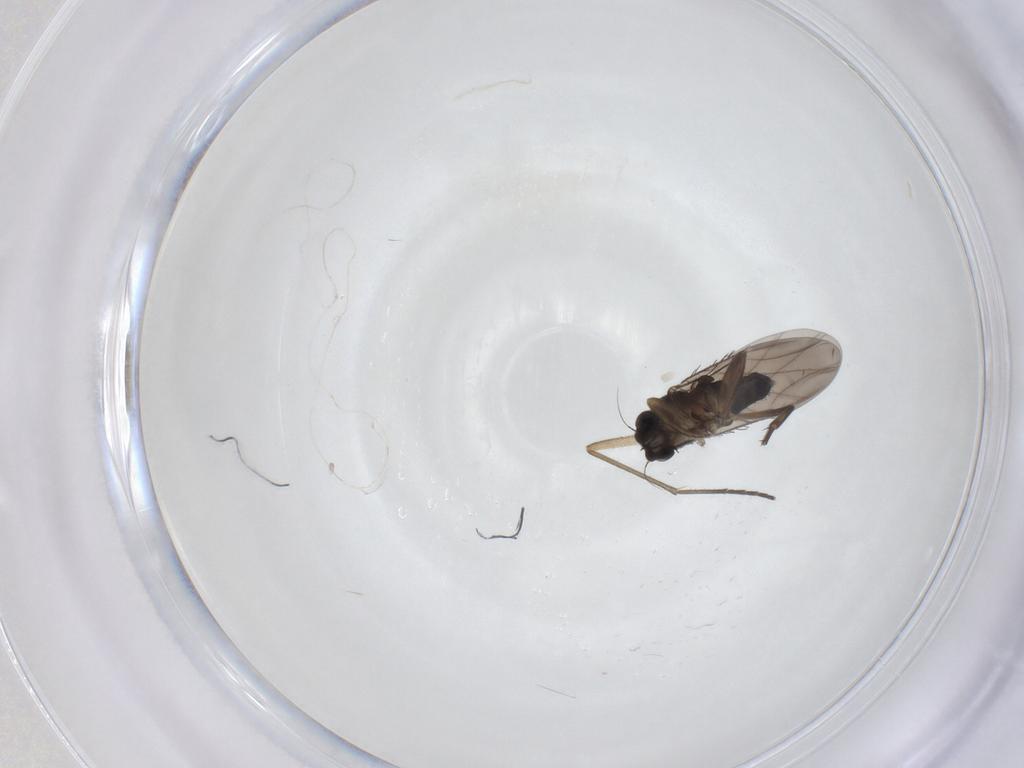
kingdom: Animalia
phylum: Arthropoda
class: Insecta
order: Diptera
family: Phoridae
